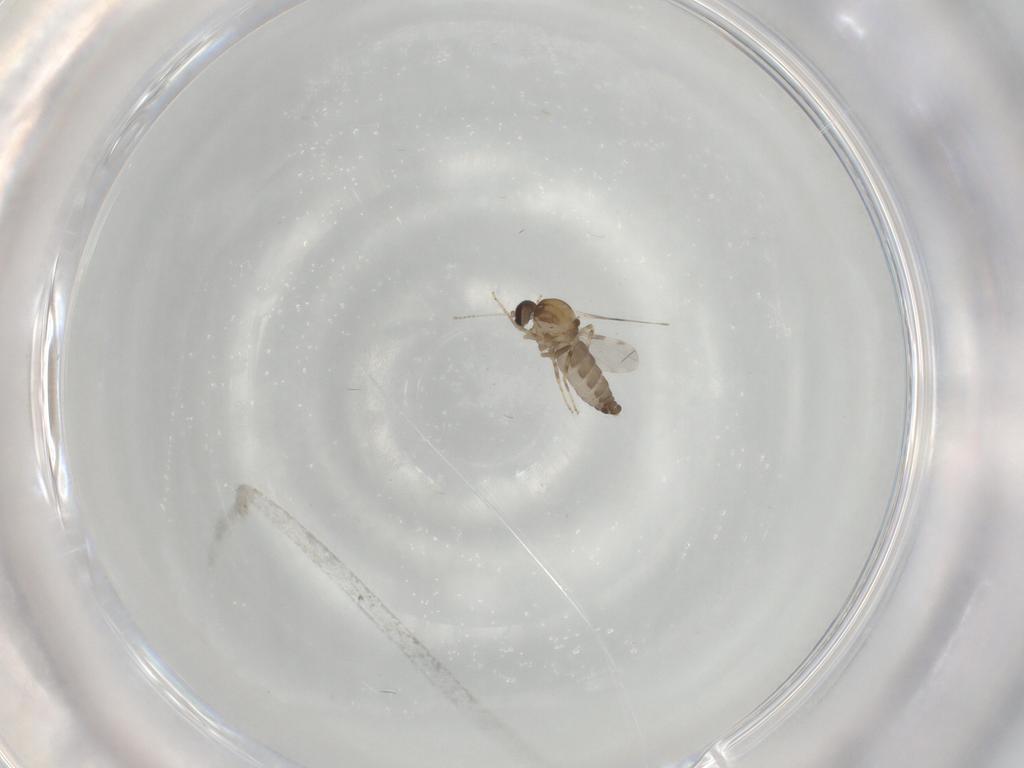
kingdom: Animalia
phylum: Arthropoda
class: Insecta
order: Diptera
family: Ceratopogonidae
